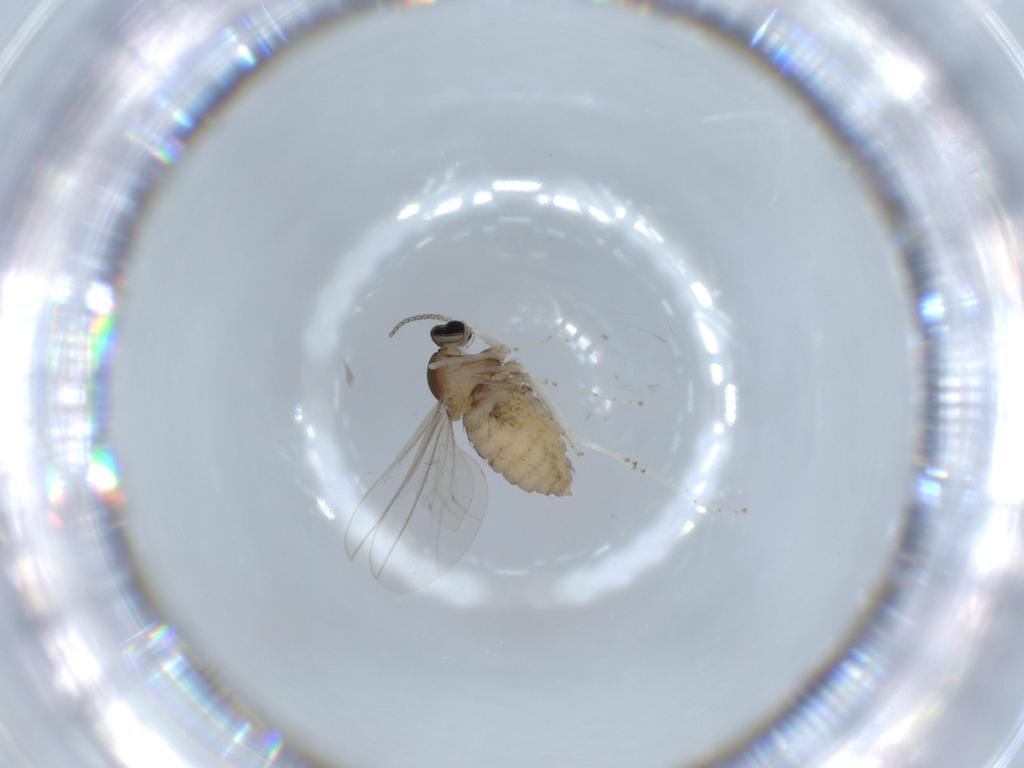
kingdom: Animalia
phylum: Arthropoda
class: Insecta
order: Diptera
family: Cecidomyiidae
